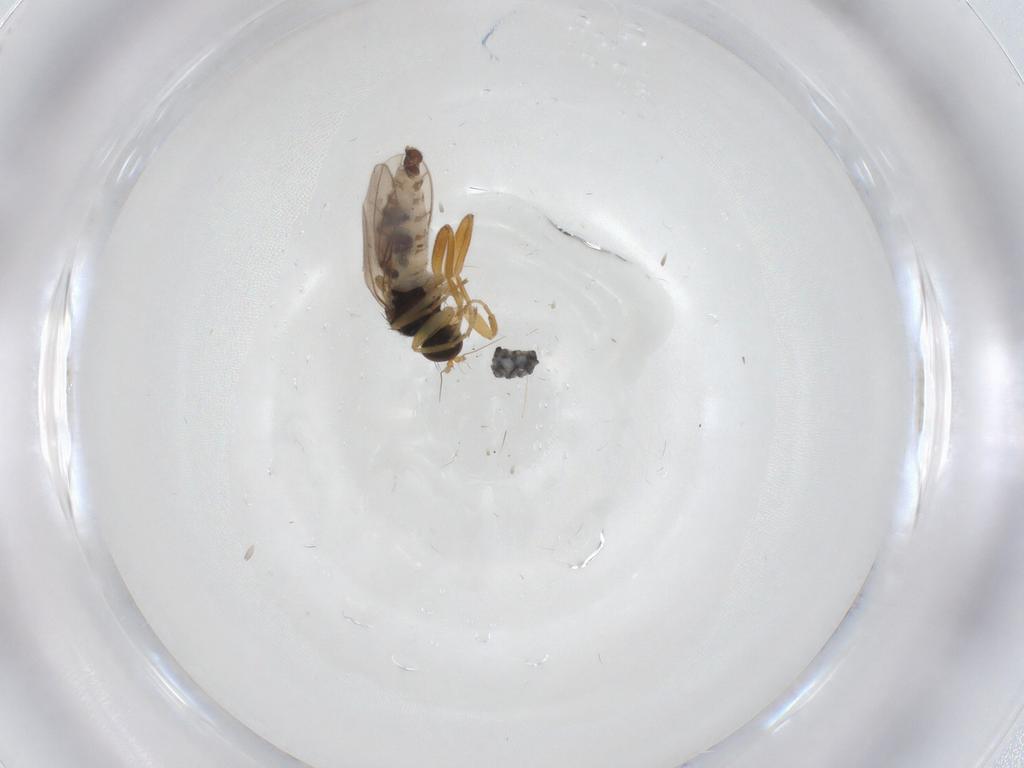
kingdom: Animalia
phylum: Arthropoda
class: Insecta
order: Diptera
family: Hybotidae
